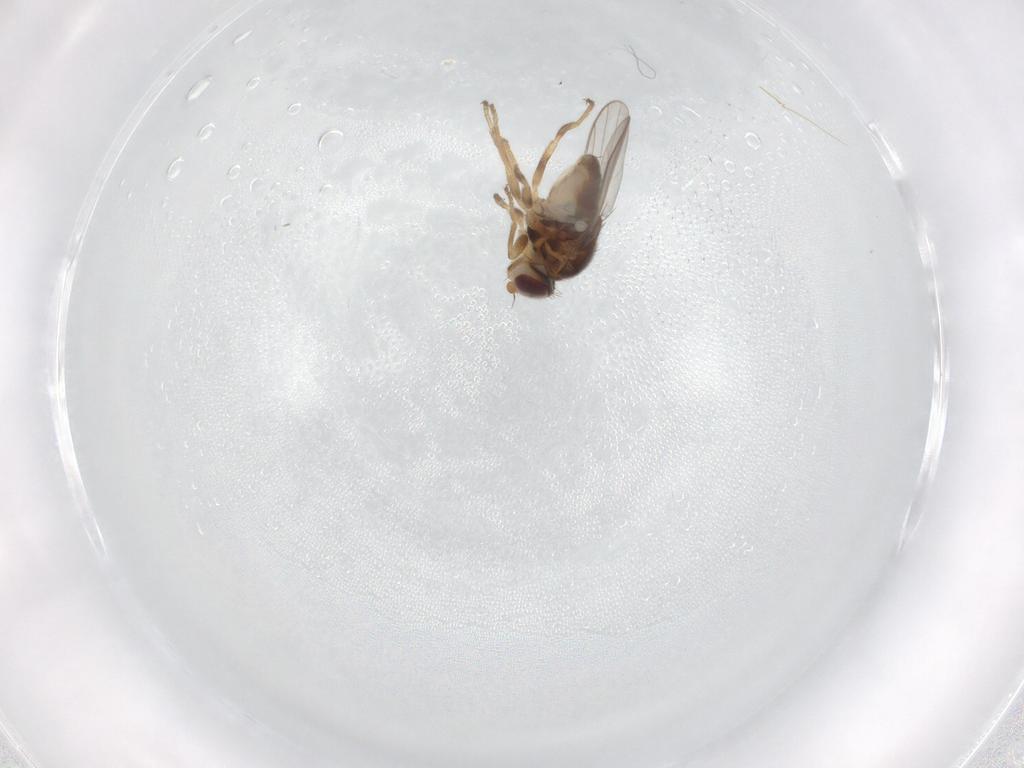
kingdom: Animalia
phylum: Arthropoda
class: Insecta
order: Diptera
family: Chloropidae
